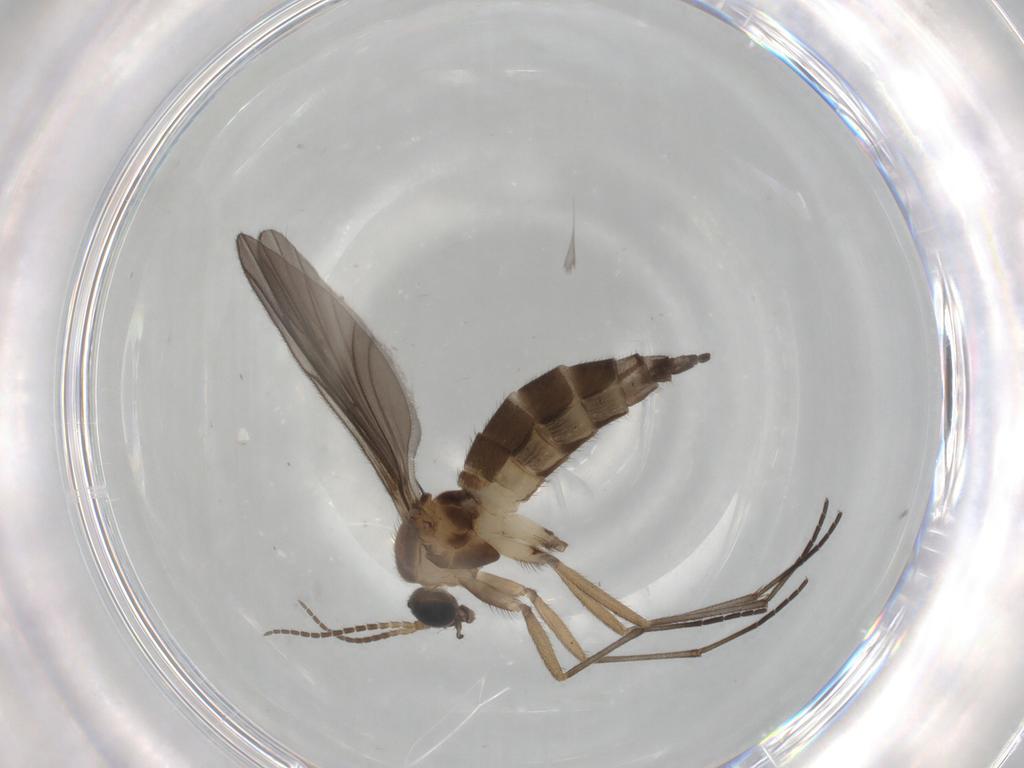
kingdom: Animalia
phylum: Arthropoda
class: Insecta
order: Diptera
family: Sciaridae
